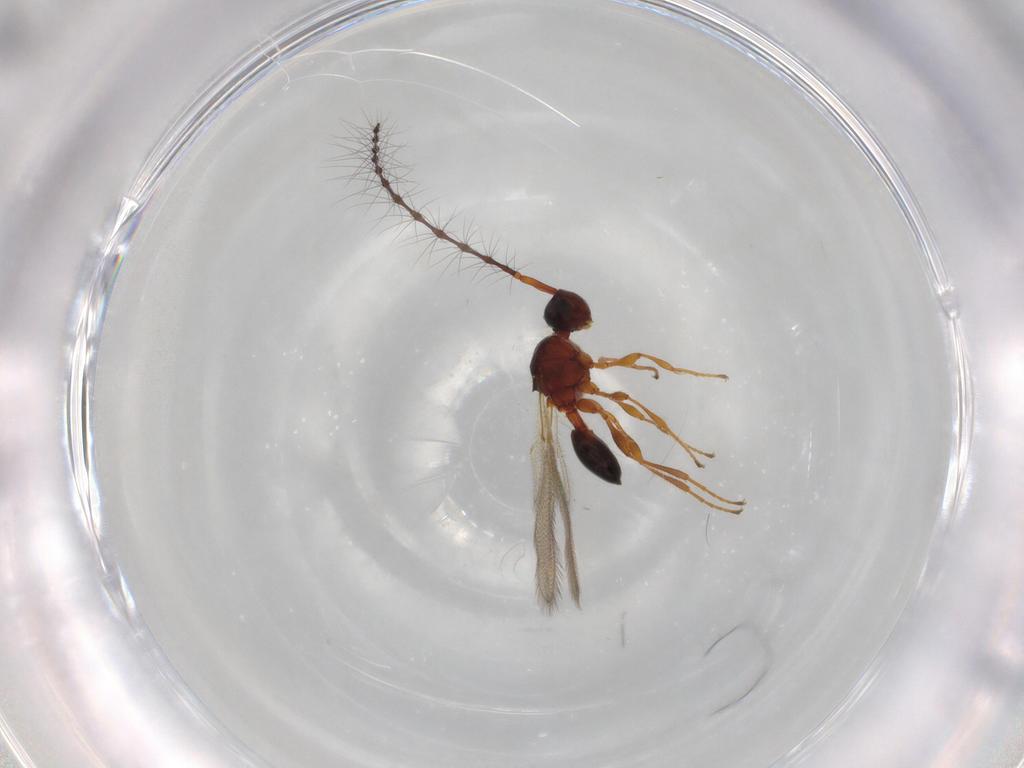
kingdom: Animalia
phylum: Arthropoda
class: Insecta
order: Hymenoptera
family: Diapriidae
